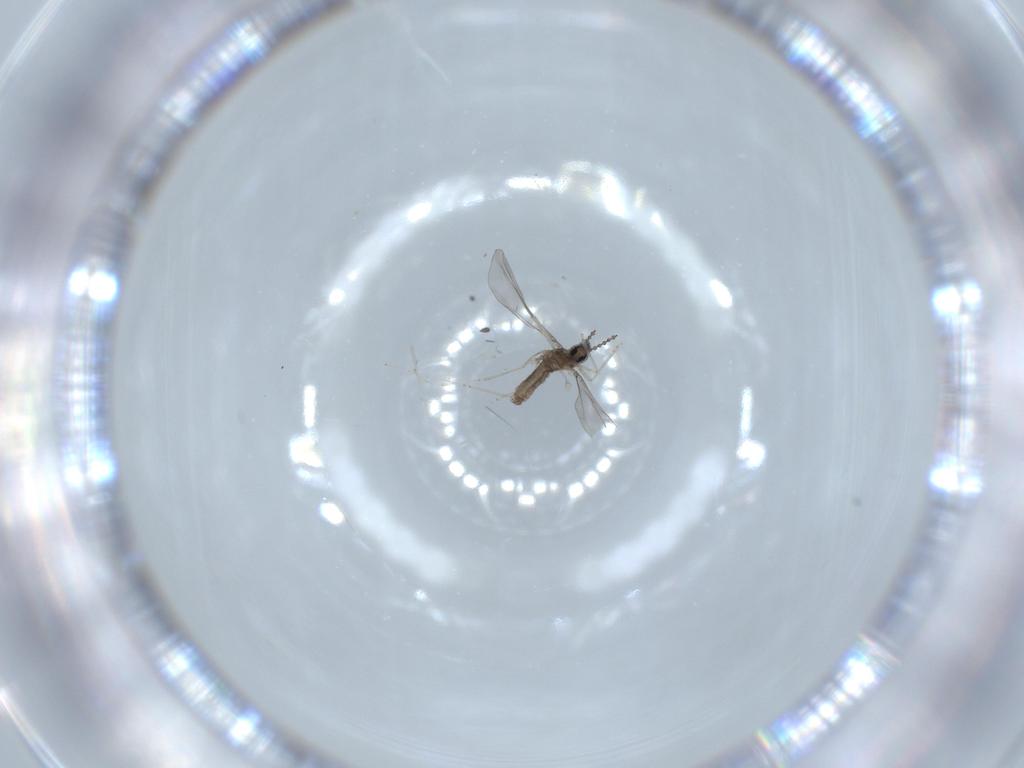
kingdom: Animalia
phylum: Arthropoda
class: Insecta
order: Diptera
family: Cecidomyiidae
